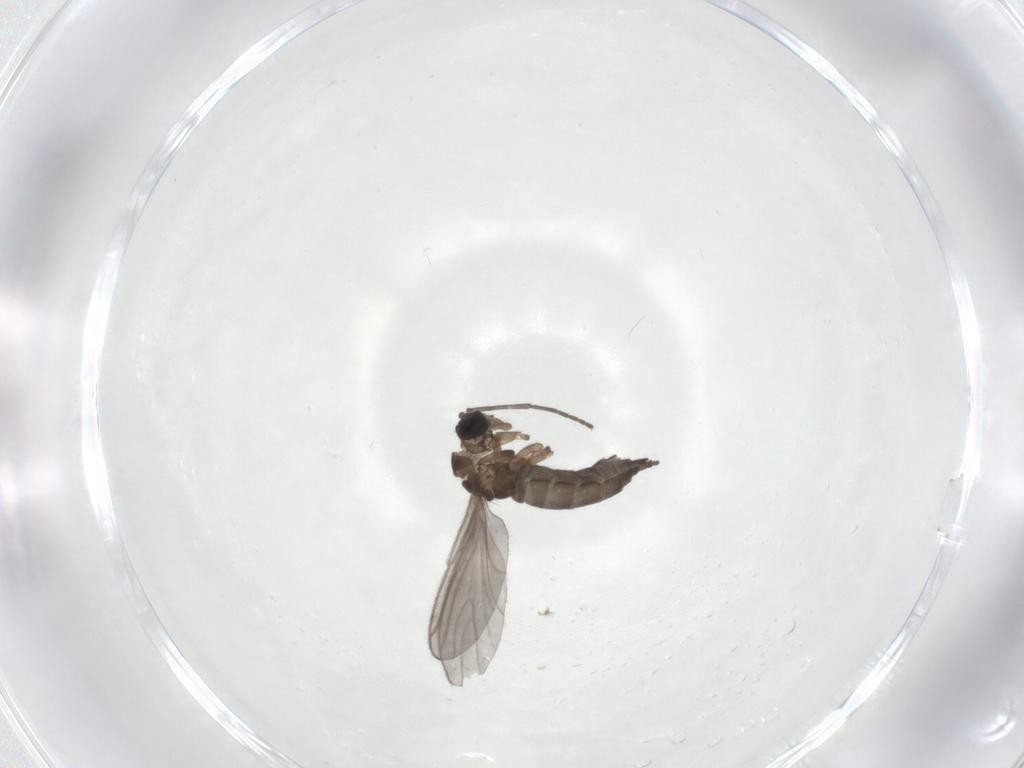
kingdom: Animalia
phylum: Arthropoda
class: Insecta
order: Diptera
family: Sciaridae
